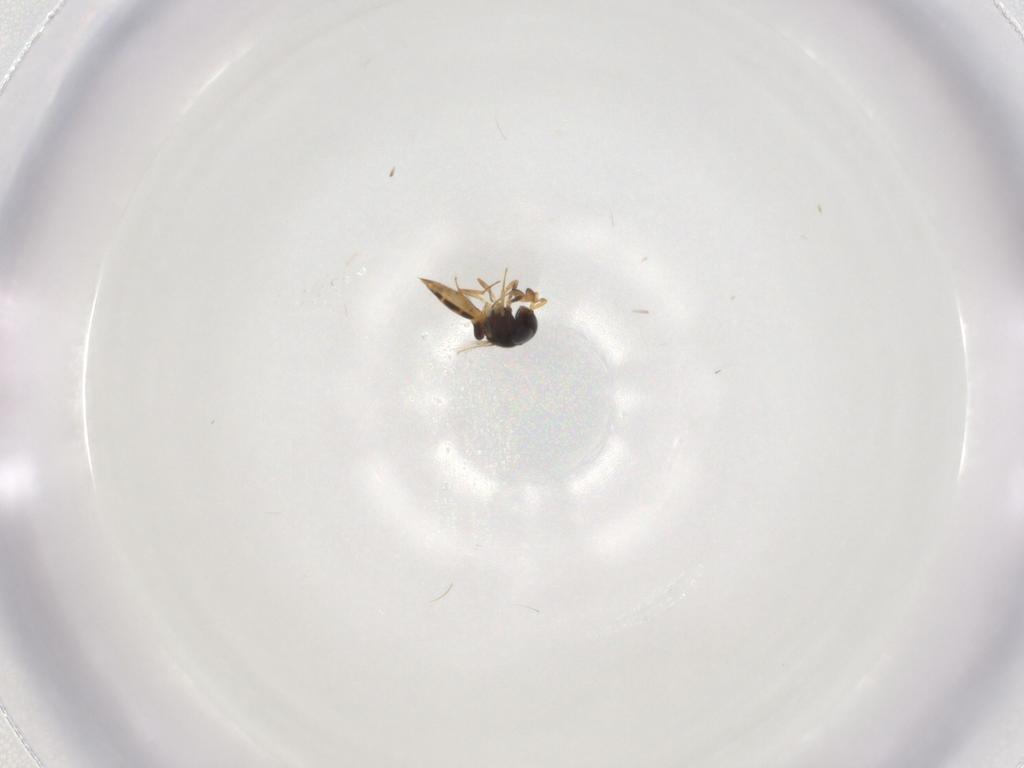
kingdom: Animalia
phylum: Arthropoda
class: Insecta
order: Hymenoptera
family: Scelionidae
